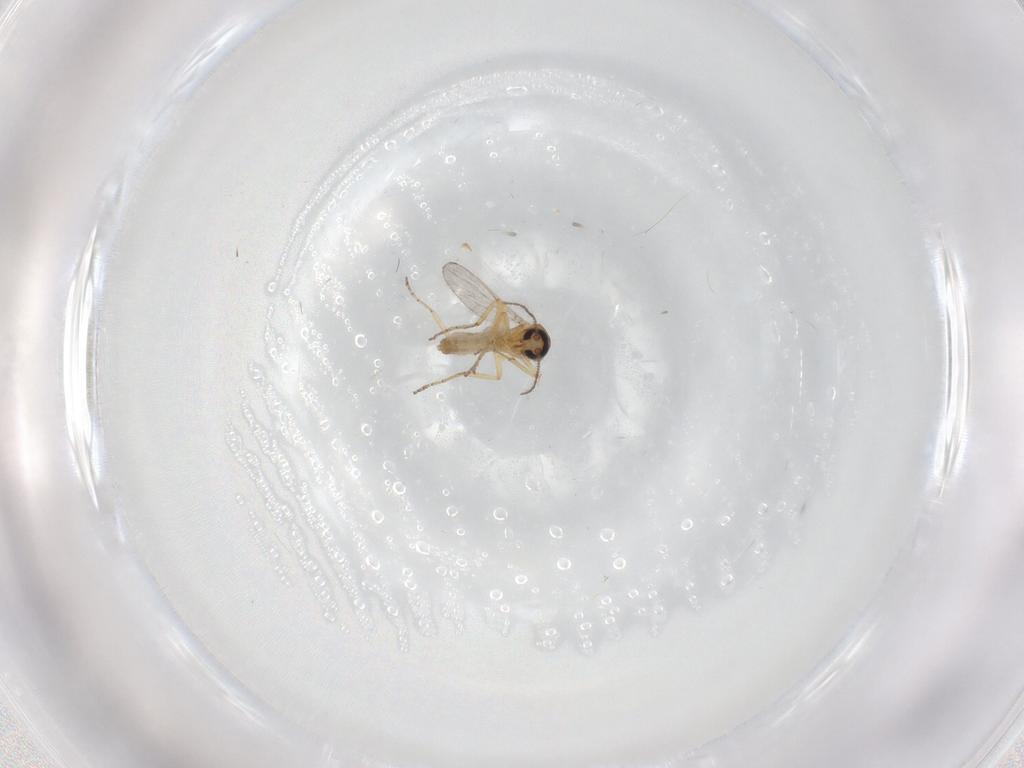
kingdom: Animalia
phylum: Arthropoda
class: Insecta
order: Diptera
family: Ceratopogonidae
